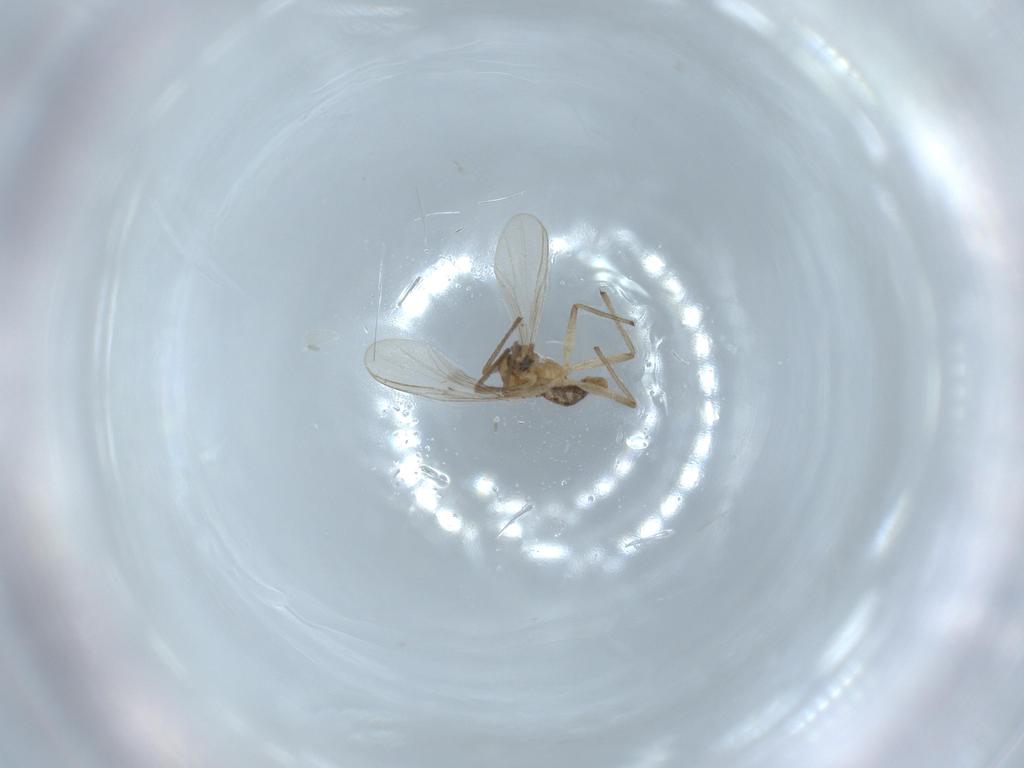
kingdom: Animalia
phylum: Arthropoda
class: Insecta
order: Diptera
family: Chironomidae
